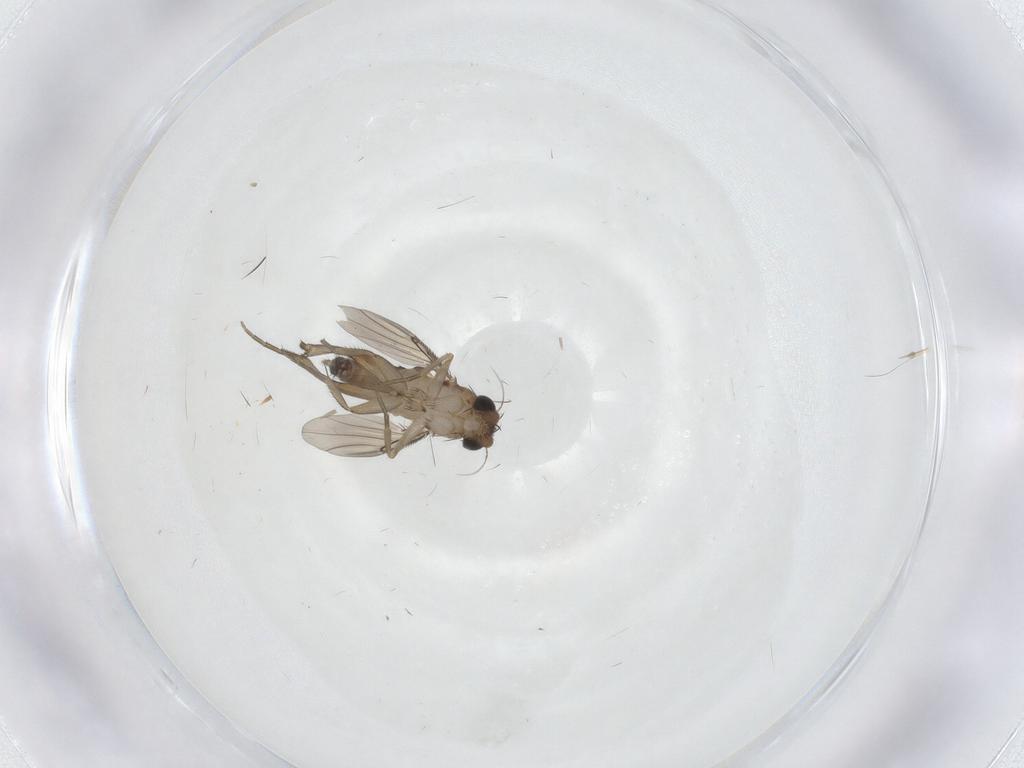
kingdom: Animalia
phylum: Arthropoda
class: Insecta
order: Diptera
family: Phoridae
